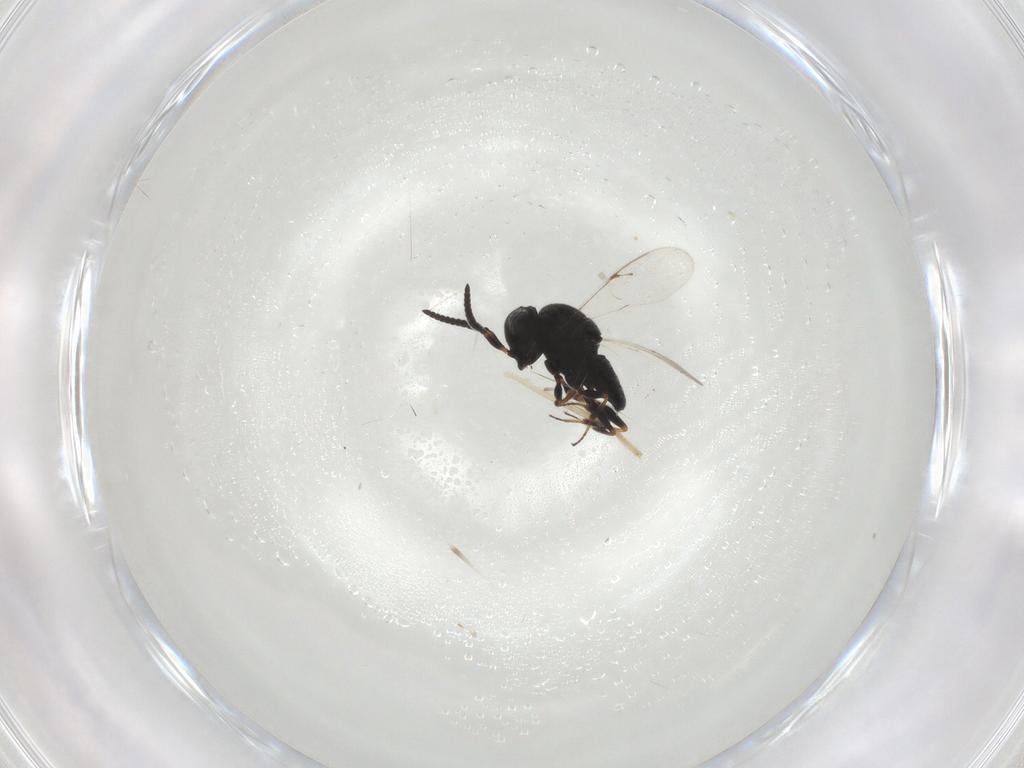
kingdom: Animalia
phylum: Arthropoda
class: Insecta
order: Hymenoptera
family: Scelionidae
